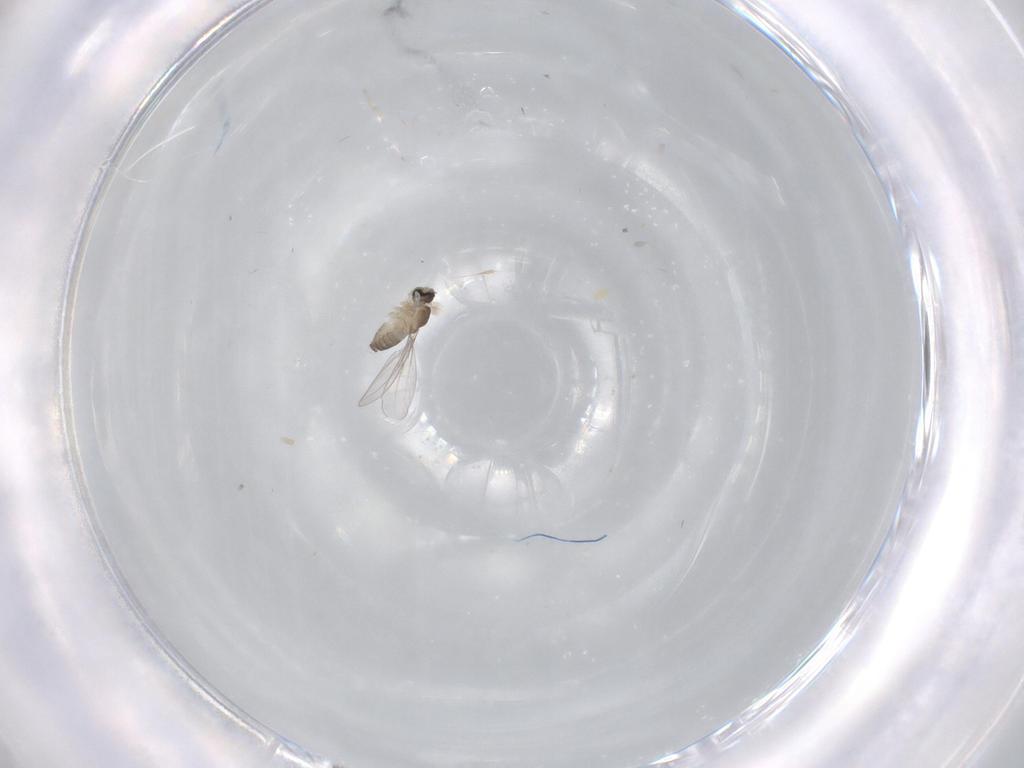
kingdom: Animalia
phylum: Arthropoda
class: Insecta
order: Diptera
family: Cecidomyiidae
